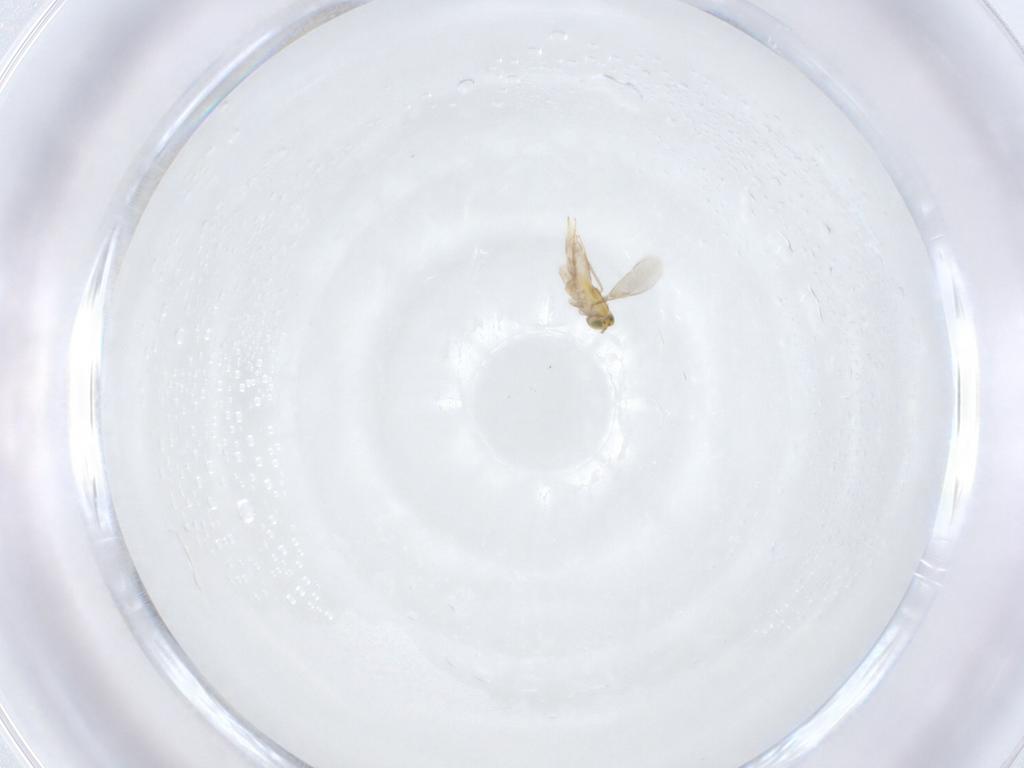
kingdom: Animalia
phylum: Arthropoda
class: Insecta
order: Hymenoptera
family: Aphelinidae
